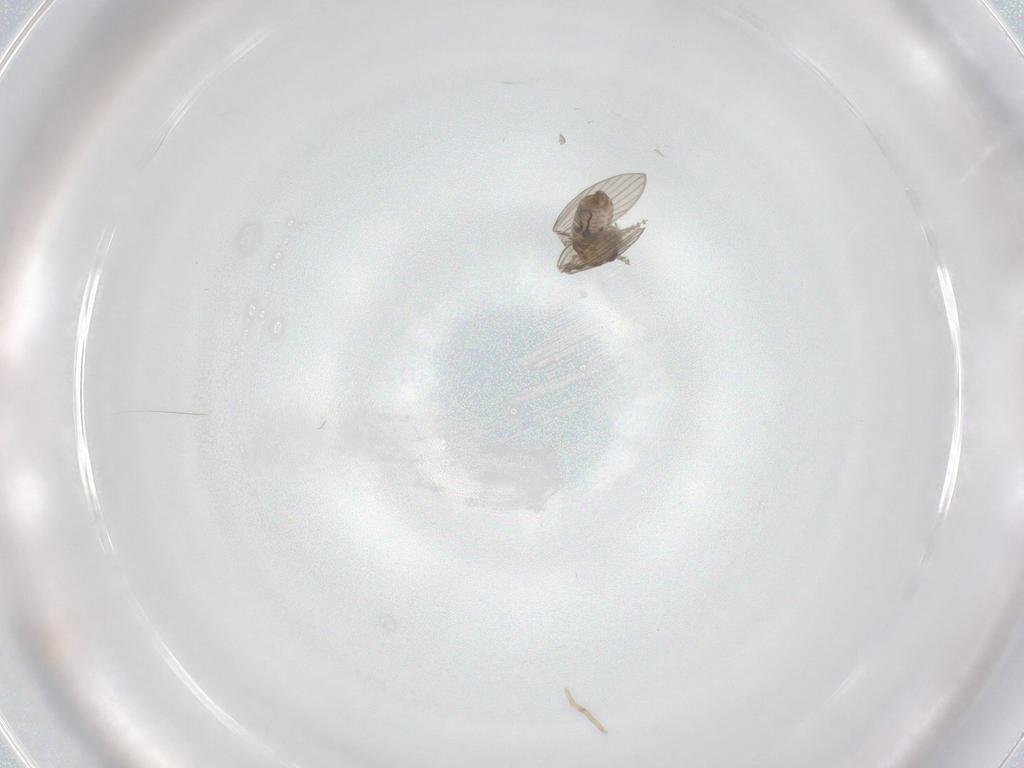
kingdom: Animalia
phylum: Arthropoda
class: Insecta
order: Diptera
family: Psychodidae
